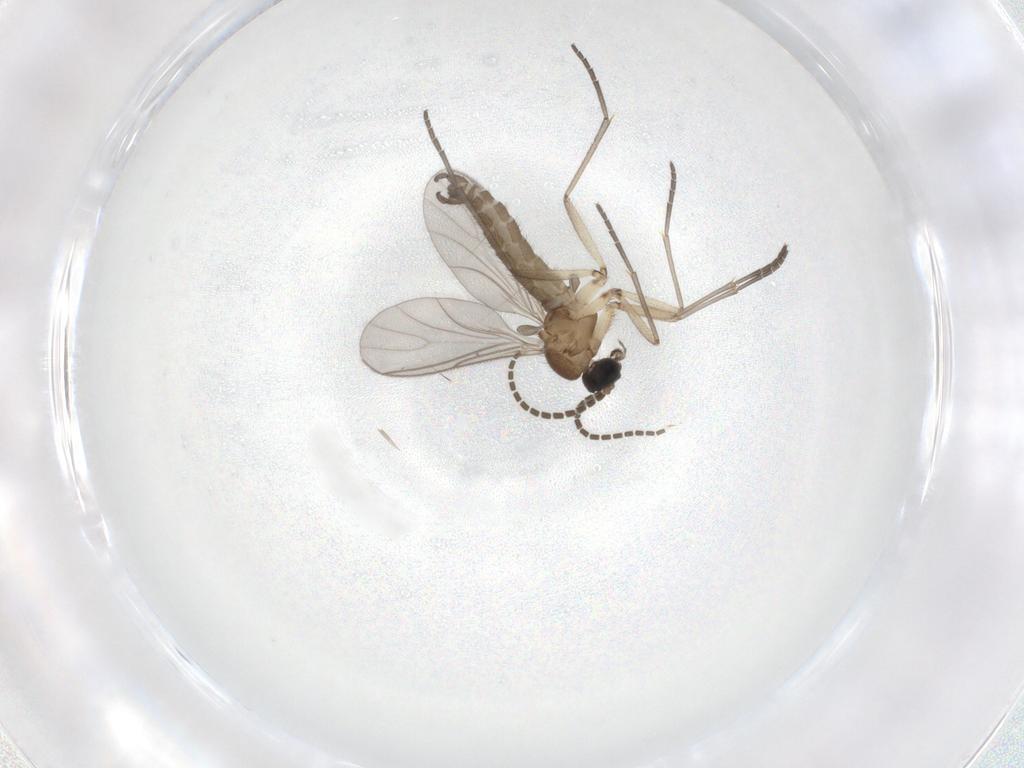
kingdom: Animalia
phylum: Arthropoda
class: Insecta
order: Diptera
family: Sciaridae
